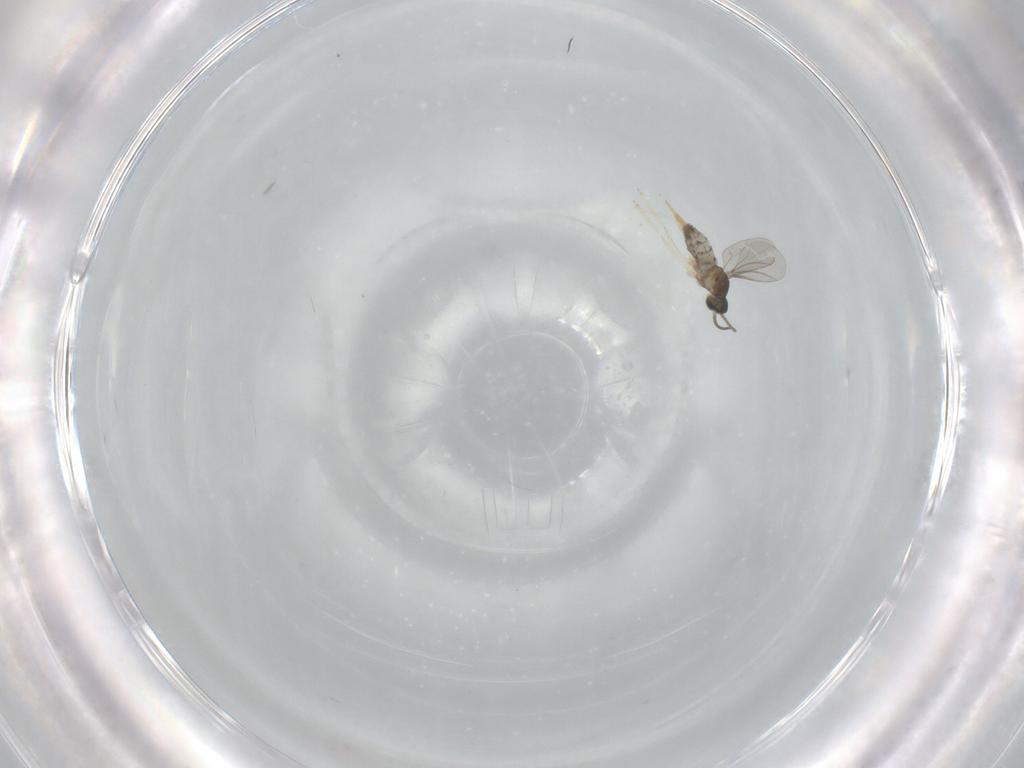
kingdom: Animalia
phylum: Arthropoda
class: Insecta
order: Diptera
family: Cecidomyiidae
